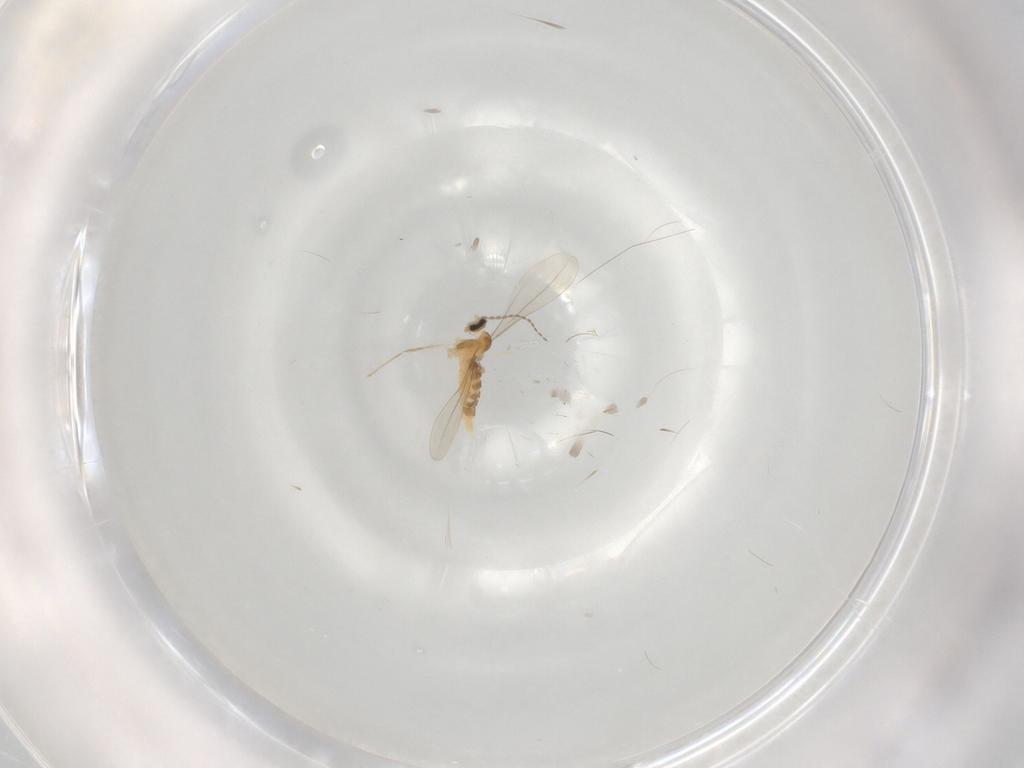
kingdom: Animalia
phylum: Arthropoda
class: Insecta
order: Diptera
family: Cecidomyiidae
